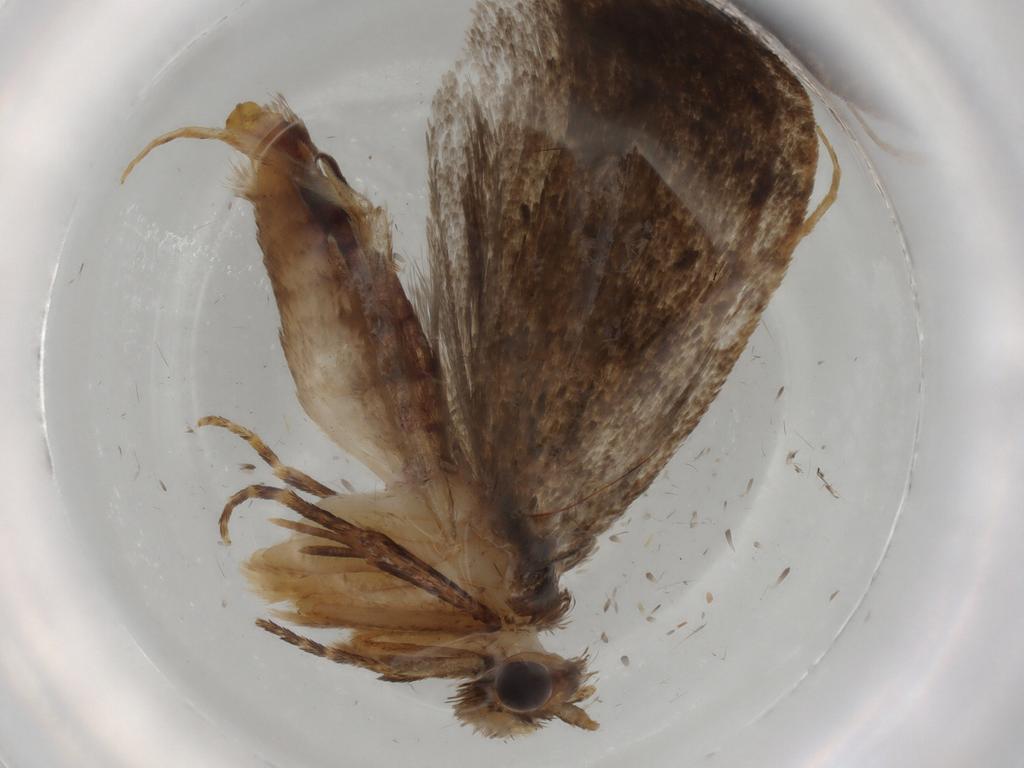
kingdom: Animalia
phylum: Arthropoda
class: Insecta
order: Lepidoptera
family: Tineidae
